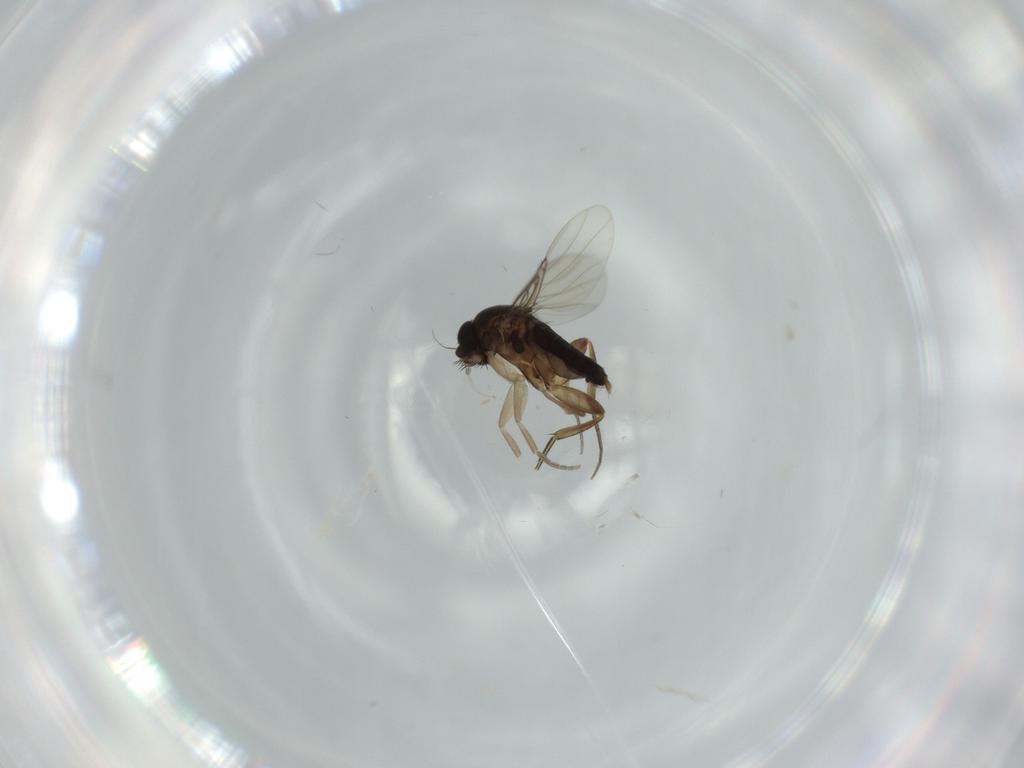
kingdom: Animalia
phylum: Arthropoda
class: Insecta
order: Diptera
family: Phoridae
